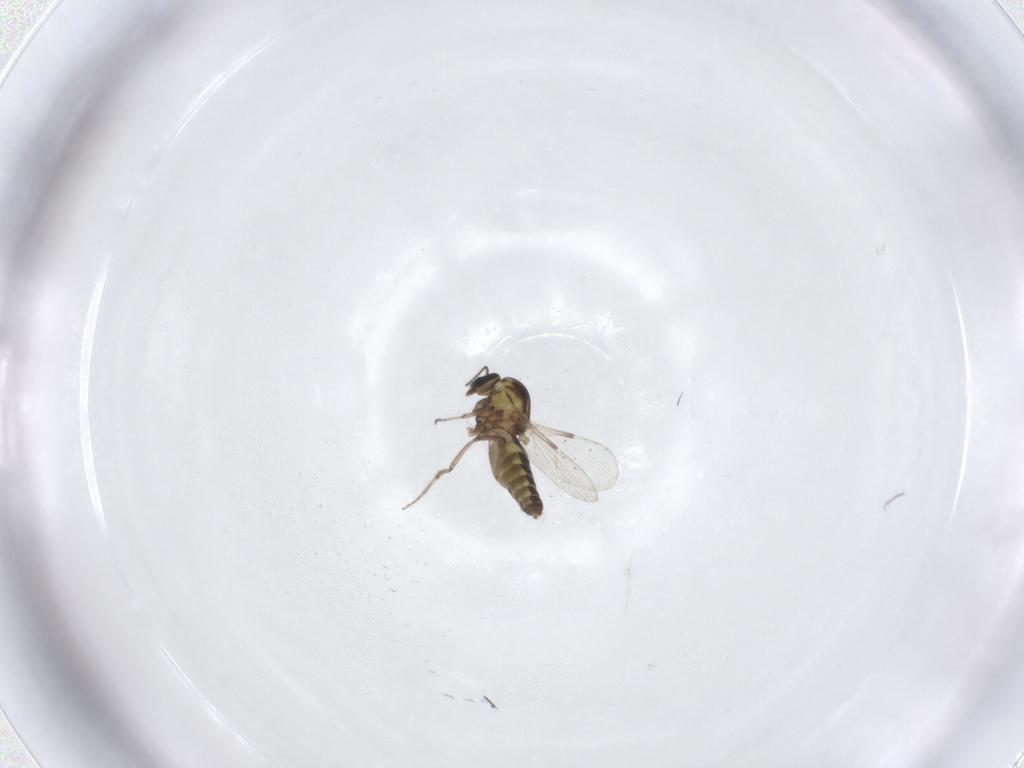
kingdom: Animalia
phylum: Arthropoda
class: Insecta
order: Diptera
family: Ceratopogonidae
